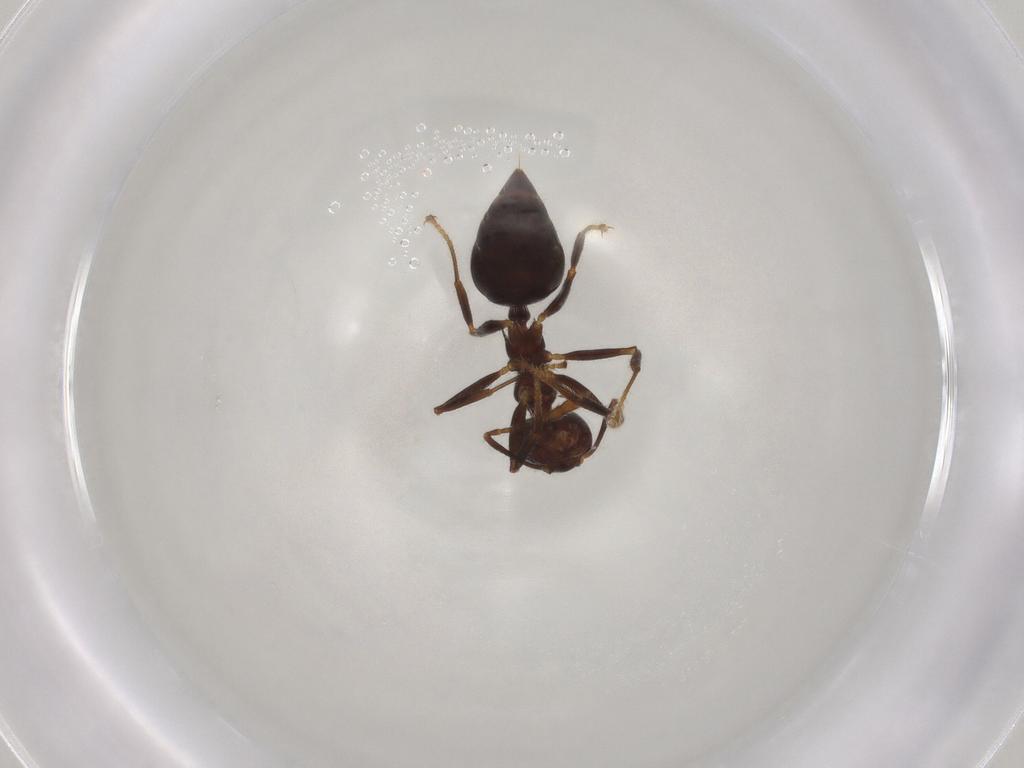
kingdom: Animalia
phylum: Arthropoda
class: Insecta
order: Hymenoptera
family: Formicidae
